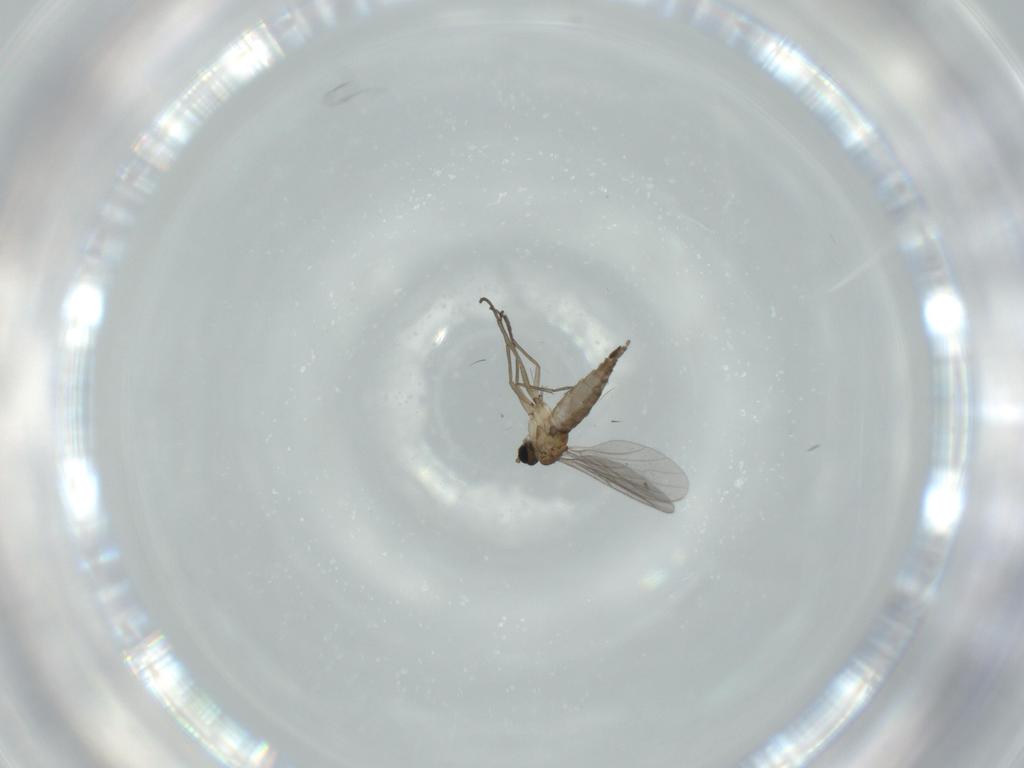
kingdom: Animalia
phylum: Arthropoda
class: Insecta
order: Diptera
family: Sciaridae
